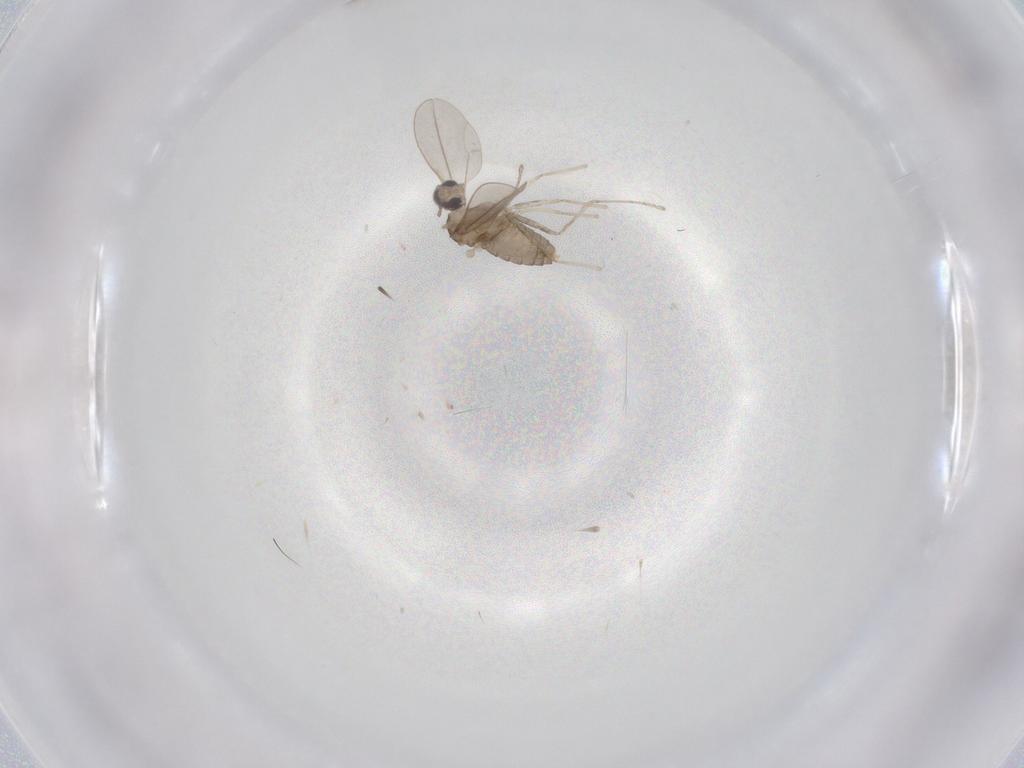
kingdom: Animalia
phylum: Arthropoda
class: Insecta
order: Diptera
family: Cecidomyiidae
